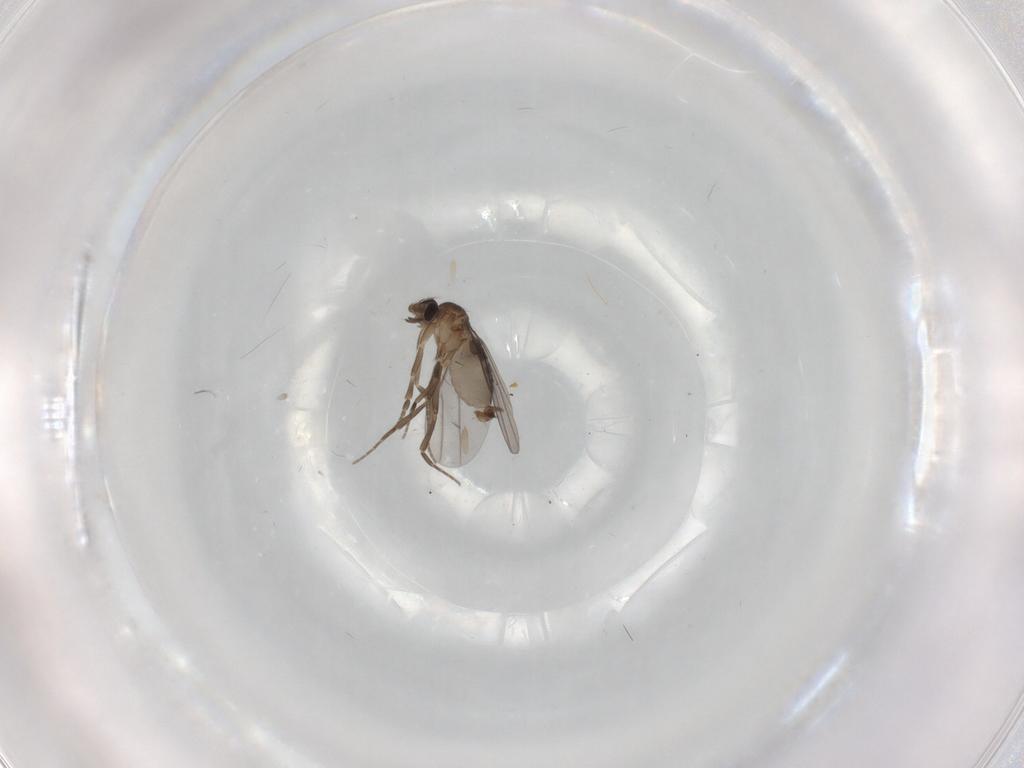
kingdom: Animalia
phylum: Arthropoda
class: Insecta
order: Diptera
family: Phoridae
